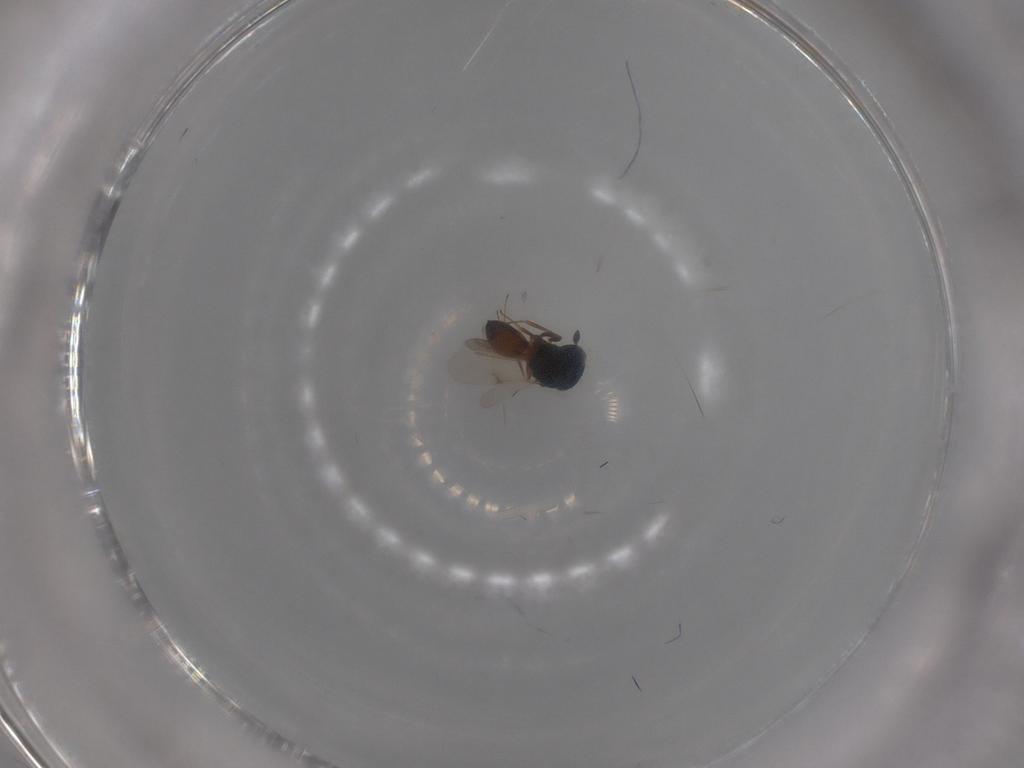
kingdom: Animalia
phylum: Arthropoda
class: Insecta
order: Hymenoptera
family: Scelionidae
